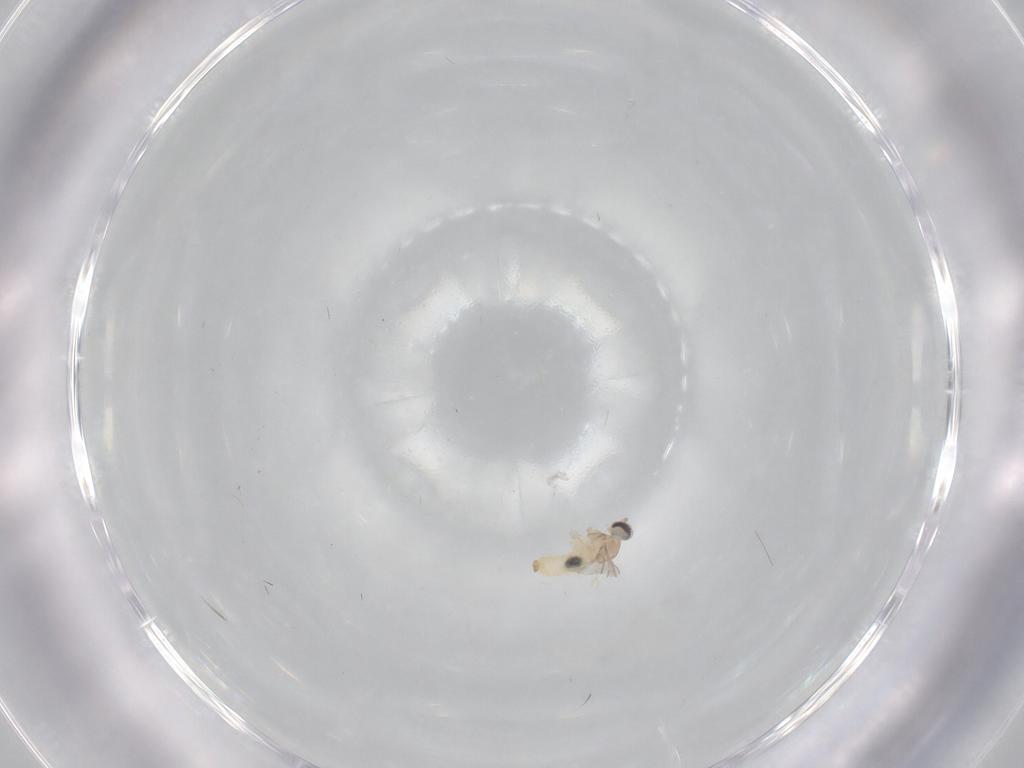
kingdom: Animalia
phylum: Arthropoda
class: Insecta
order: Diptera
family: Cecidomyiidae
